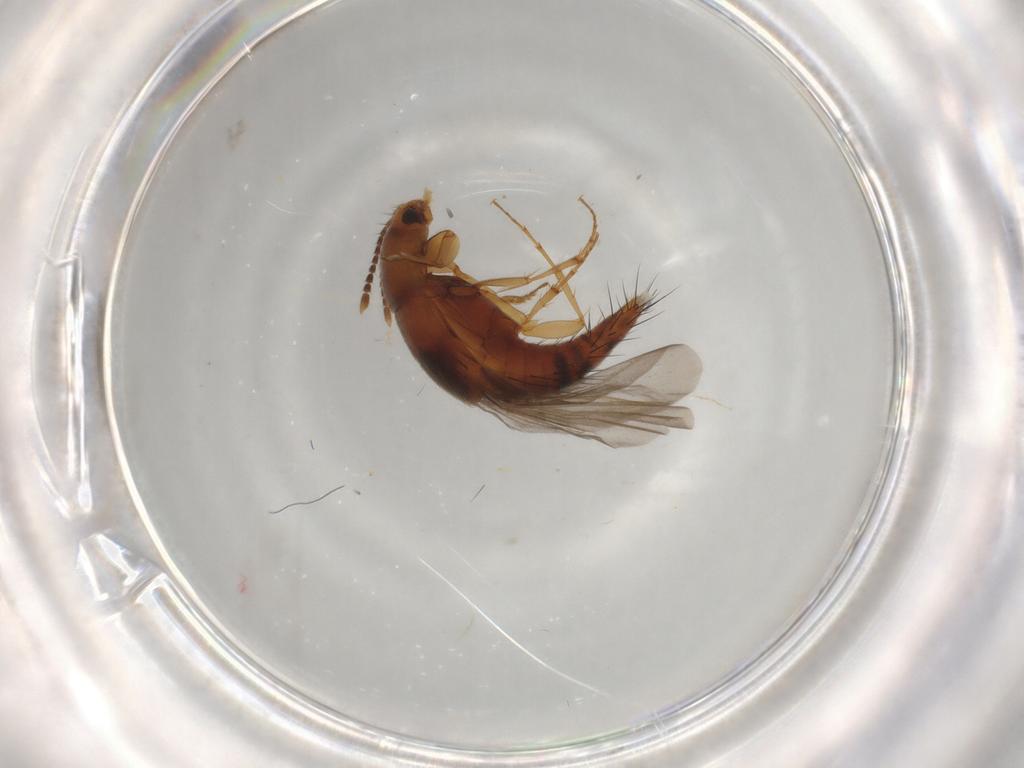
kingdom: Animalia
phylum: Arthropoda
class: Insecta
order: Coleoptera
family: Staphylinidae
